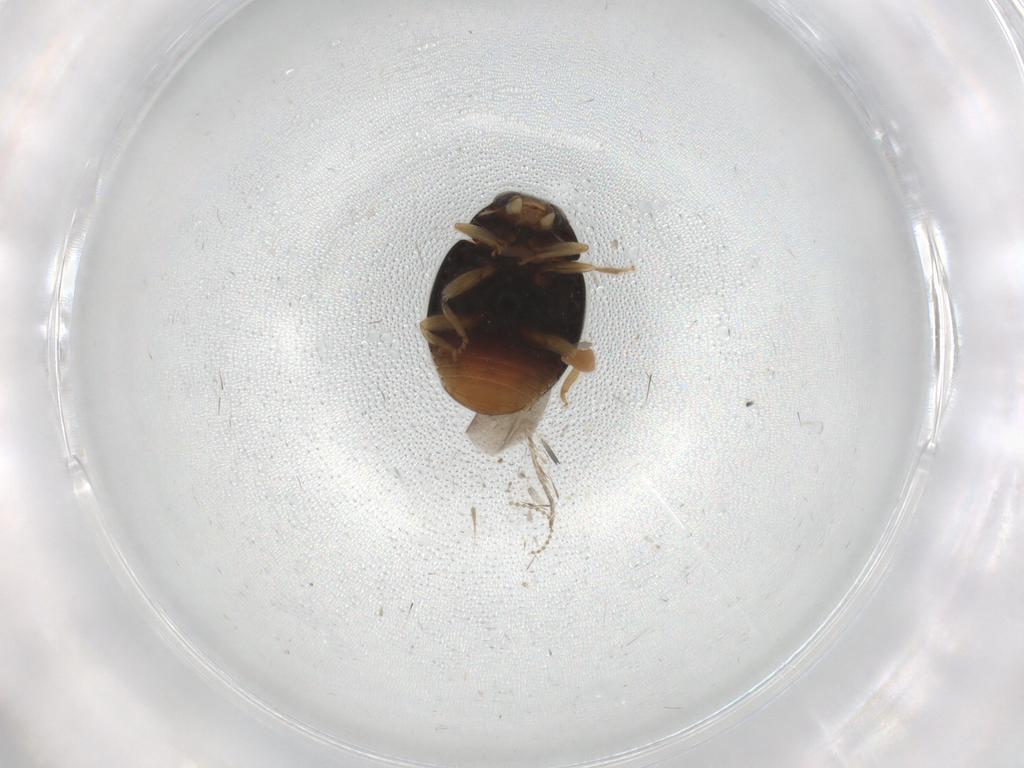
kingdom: Animalia
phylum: Arthropoda
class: Insecta
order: Coleoptera
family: Coccinellidae
